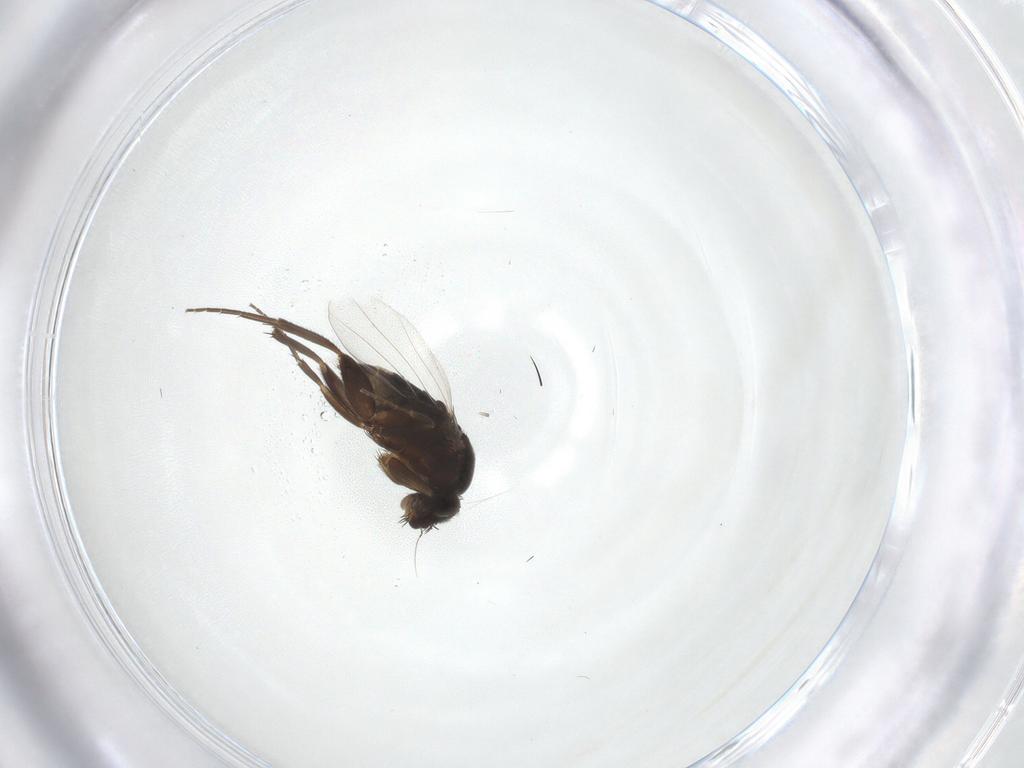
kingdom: Animalia
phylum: Arthropoda
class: Insecta
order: Diptera
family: Phoridae
